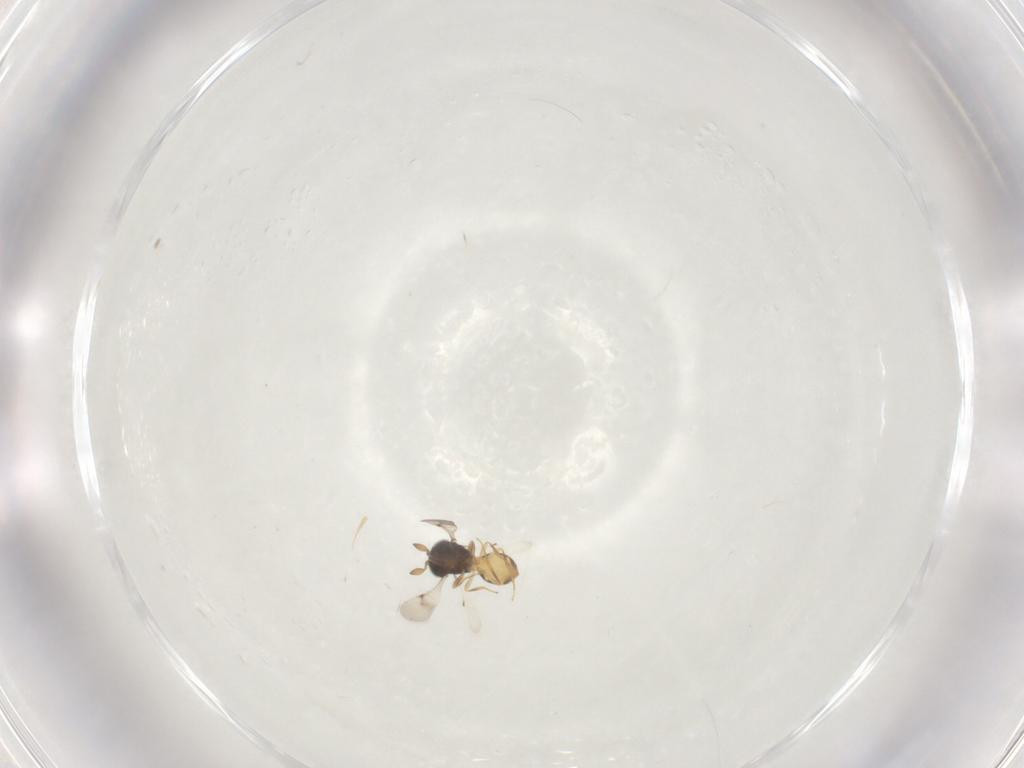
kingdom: Animalia
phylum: Arthropoda
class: Insecta
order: Hymenoptera
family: Scelionidae
